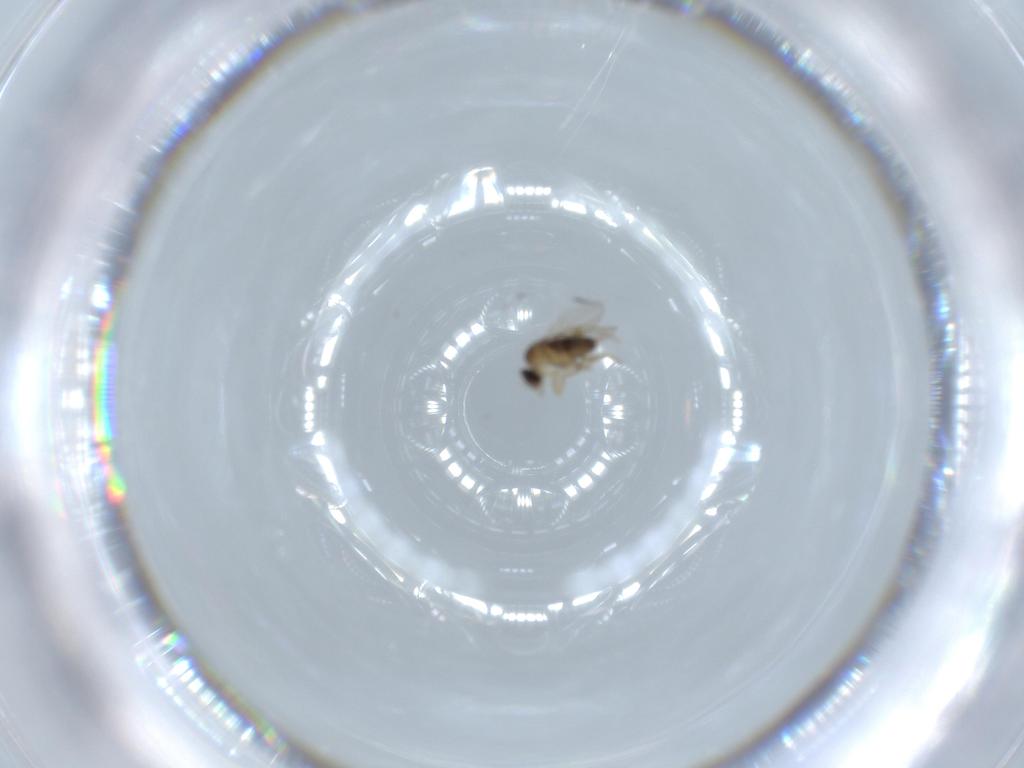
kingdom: Animalia
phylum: Arthropoda
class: Insecta
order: Diptera
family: Phoridae
